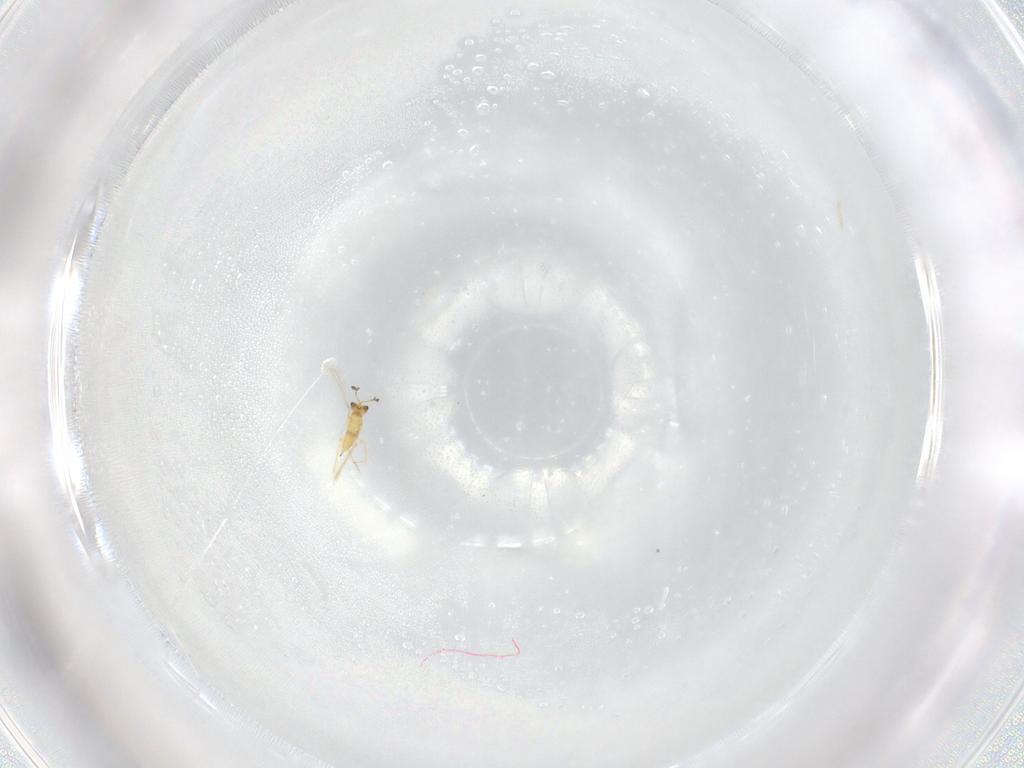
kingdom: Animalia
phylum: Arthropoda
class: Insecta
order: Hymenoptera
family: Mymaridae
